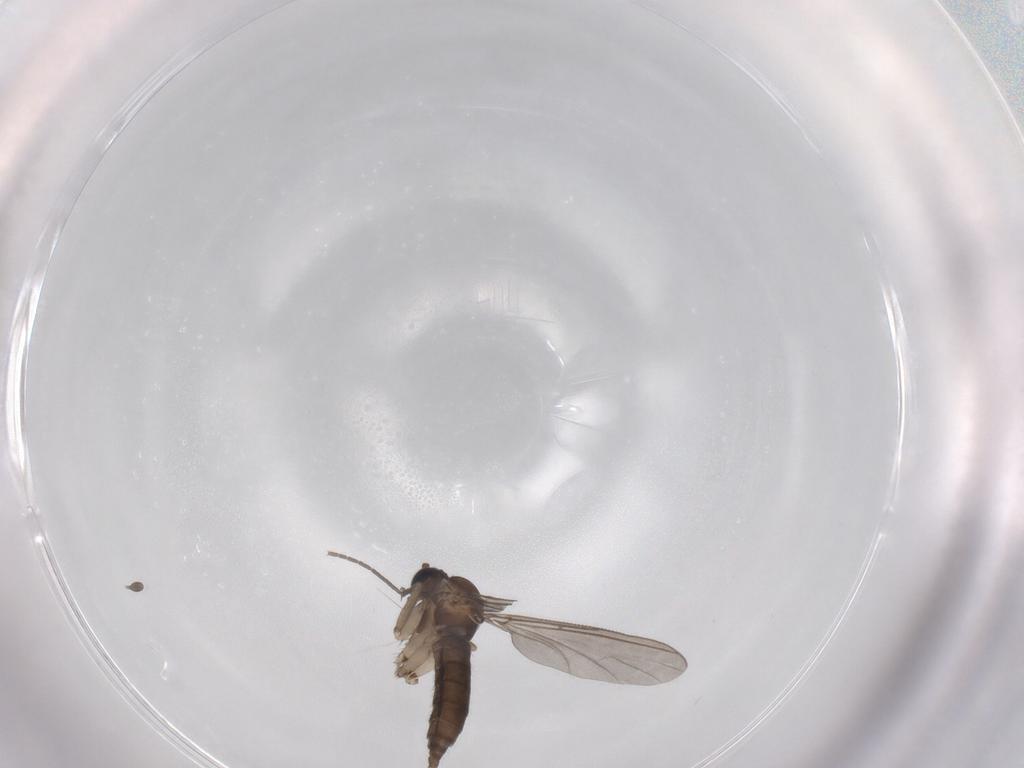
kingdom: Animalia
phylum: Arthropoda
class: Insecta
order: Diptera
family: Sciaridae
